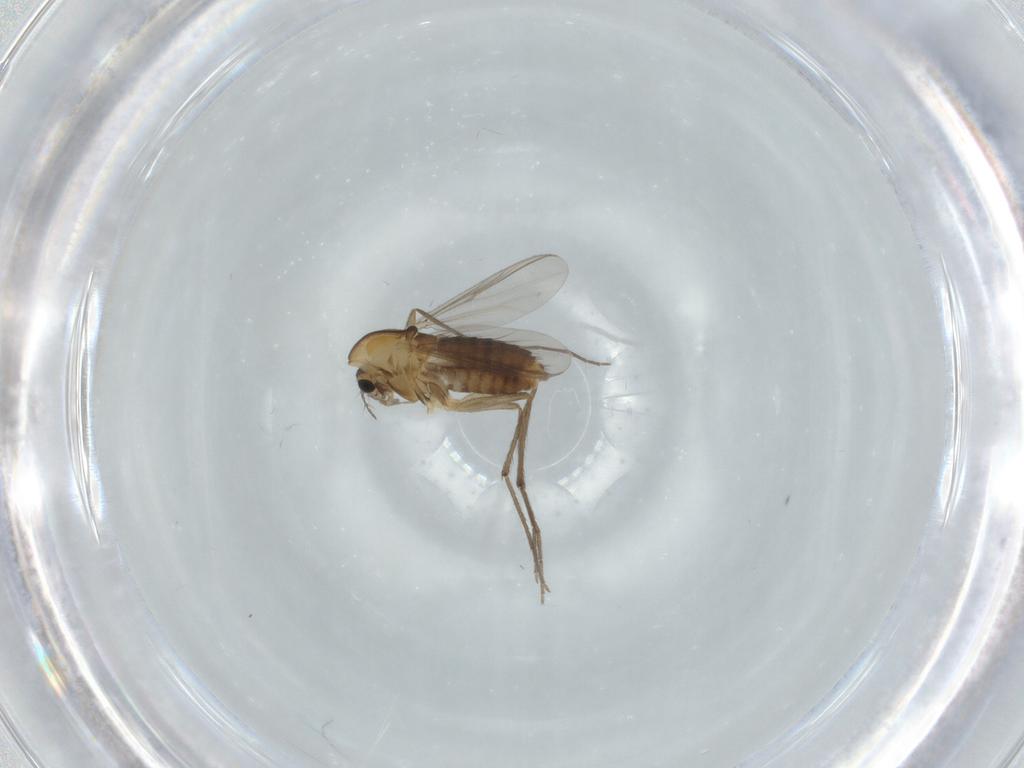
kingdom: Animalia
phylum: Arthropoda
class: Insecta
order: Diptera
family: Chironomidae
